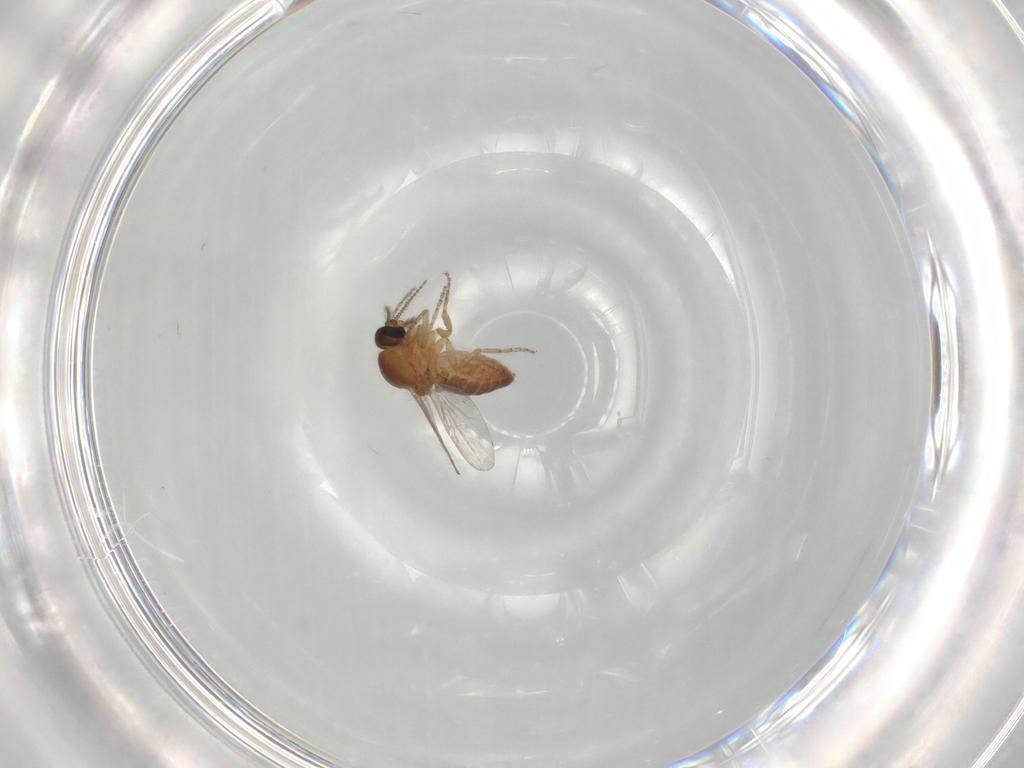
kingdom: Animalia
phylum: Arthropoda
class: Insecta
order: Diptera
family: Ceratopogonidae
